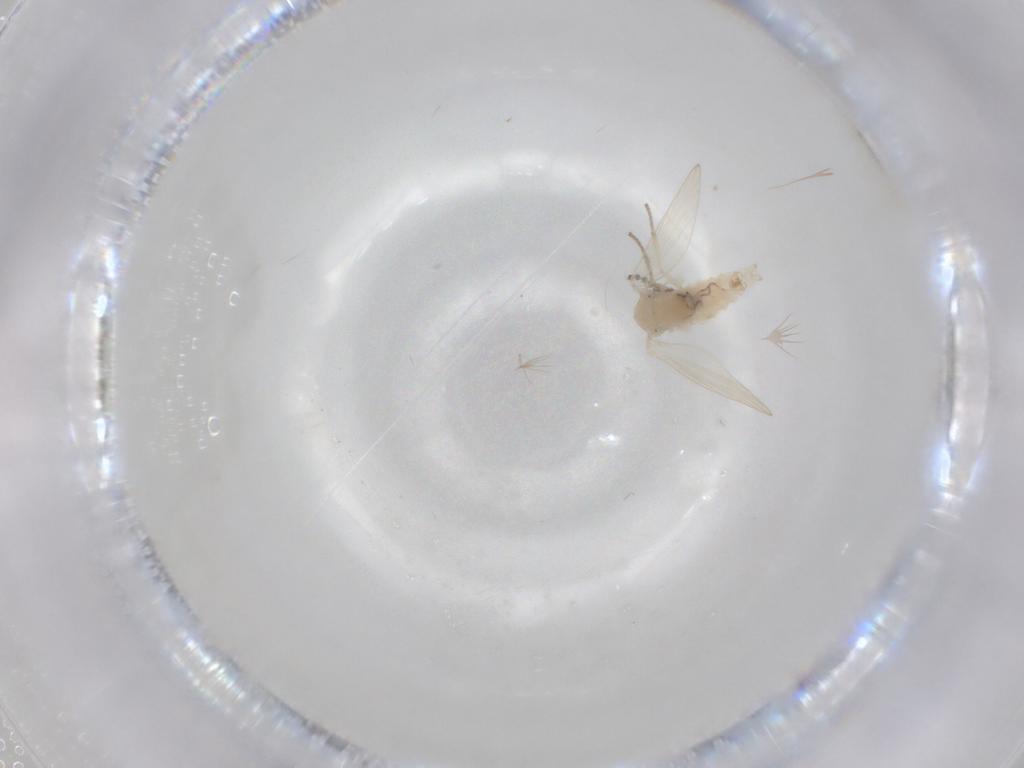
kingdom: Animalia
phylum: Arthropoda
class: Insecta
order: Diptera
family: Psychodidae
